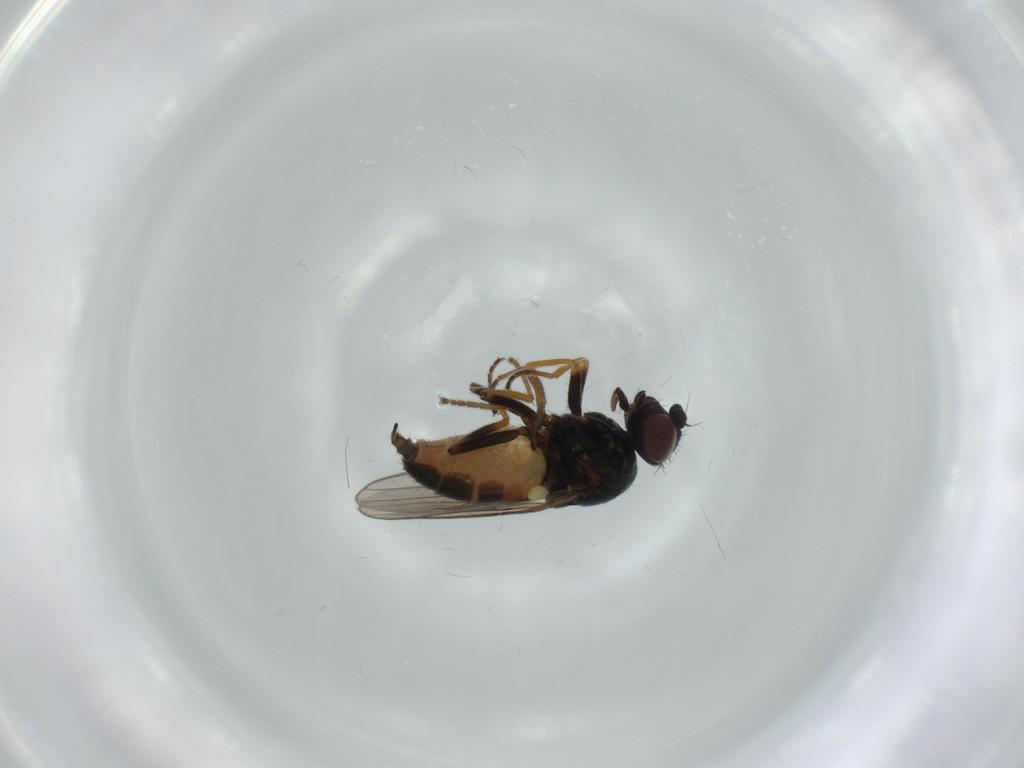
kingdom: Animalia
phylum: Arthropoda
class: Insecta
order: Diptera
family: Chloropidae
